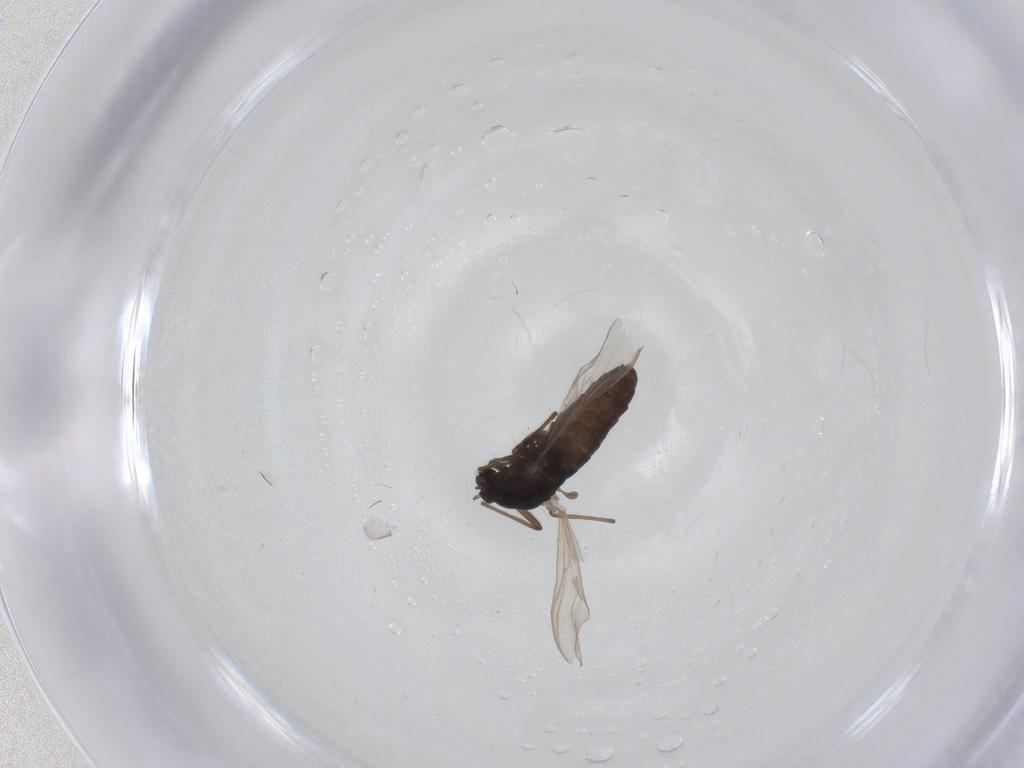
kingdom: Animalia
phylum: Arthropoda
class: Insecta
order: Diptera
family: Chironomidae
